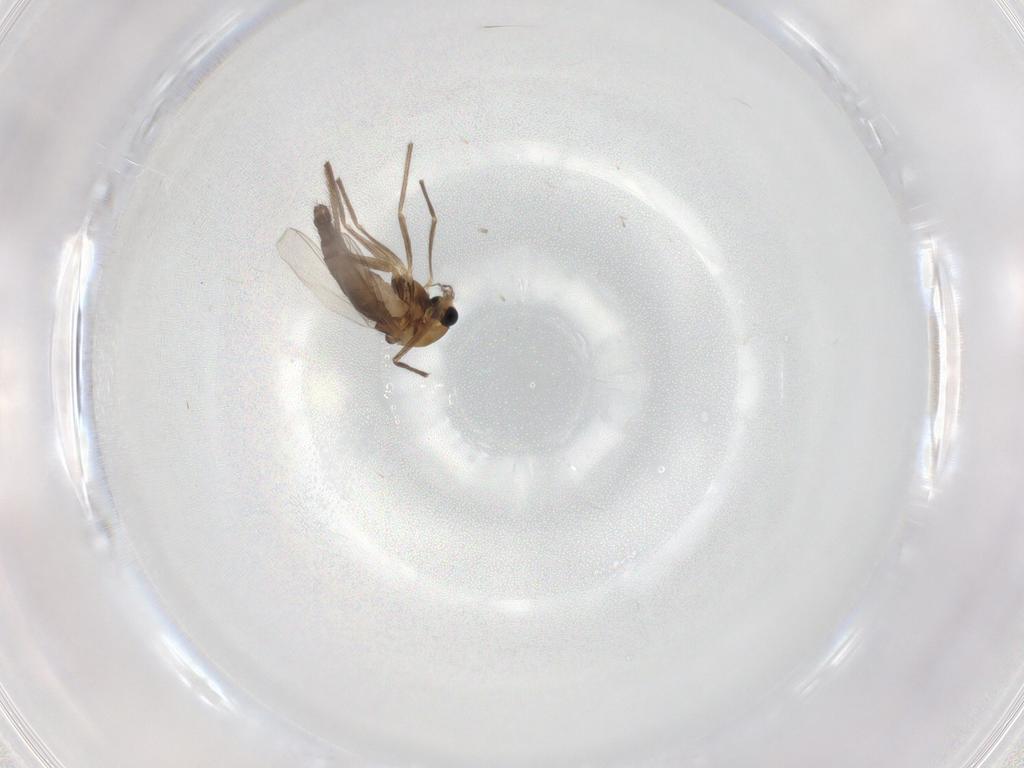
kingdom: Animalia
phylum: Arthropoda
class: Insecta
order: Diptera
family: Chironomidae
